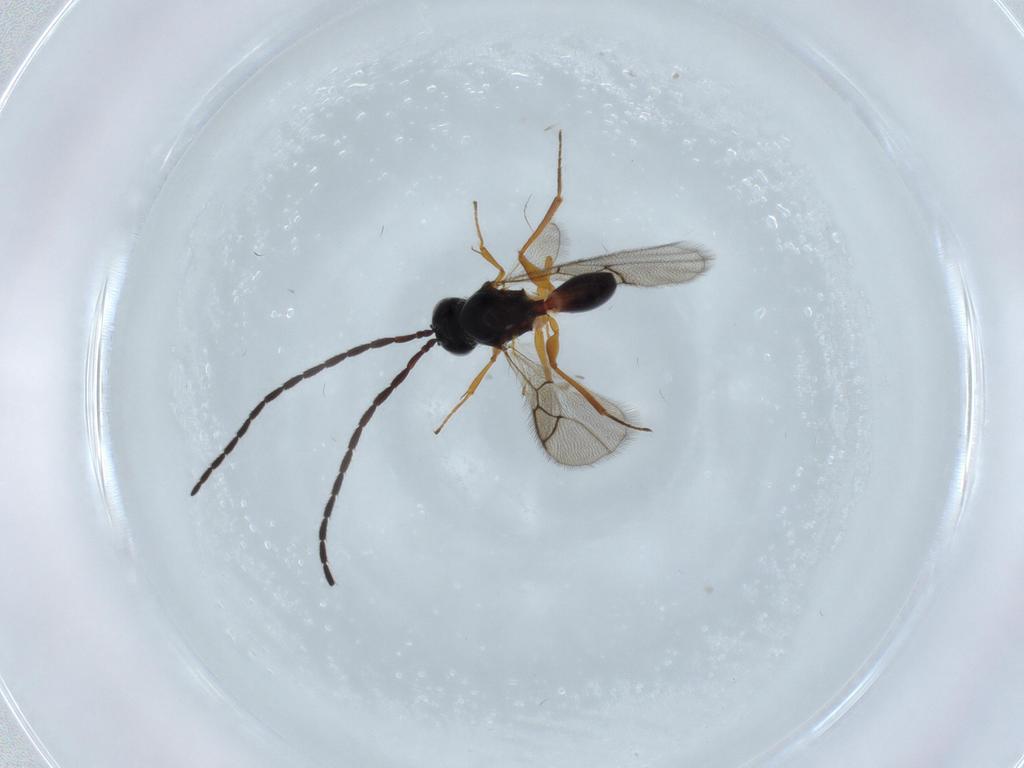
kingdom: Animalia
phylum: Arthropoda
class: Insecta
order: Hymenoptera
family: Figitidae
